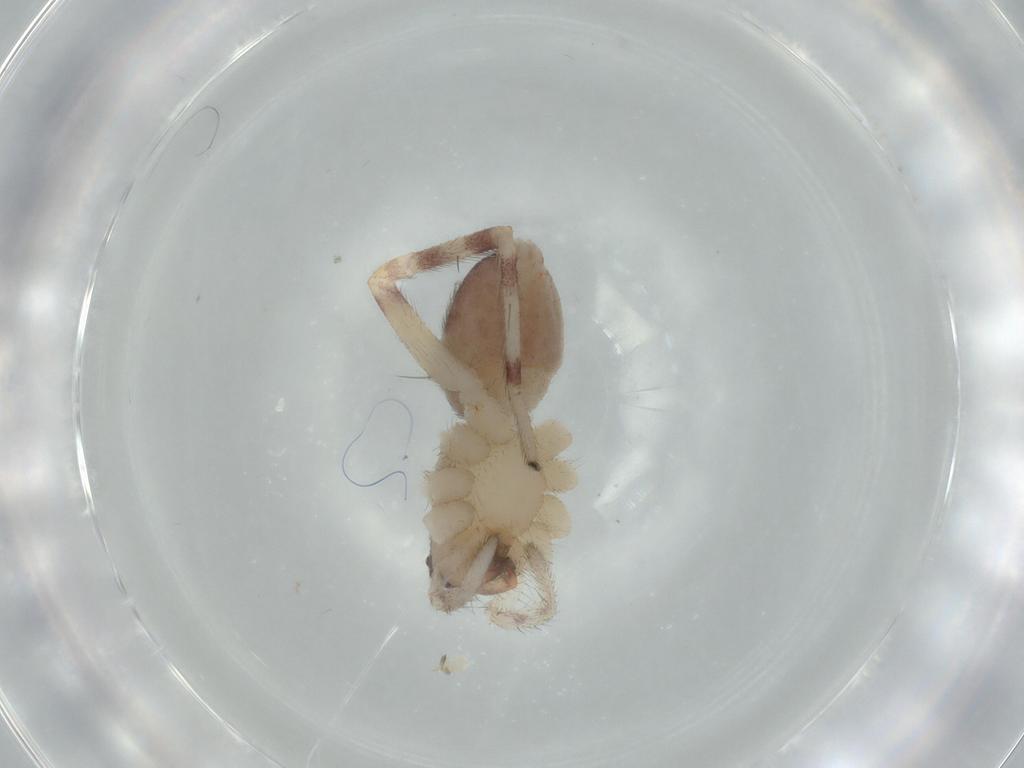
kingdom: Animalia
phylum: Arthropoda
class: Arachnida
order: Araneae
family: Corinnidae
